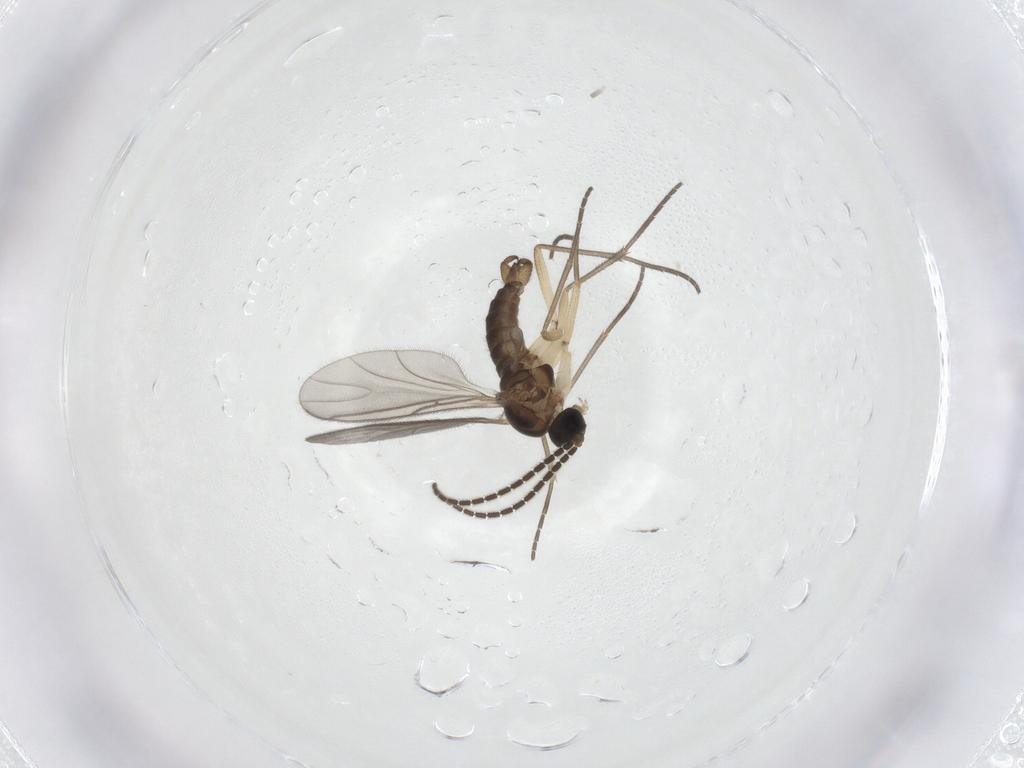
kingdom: Animalia
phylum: Arthropoda
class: Insecta
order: Diptera
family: Sciaridae
